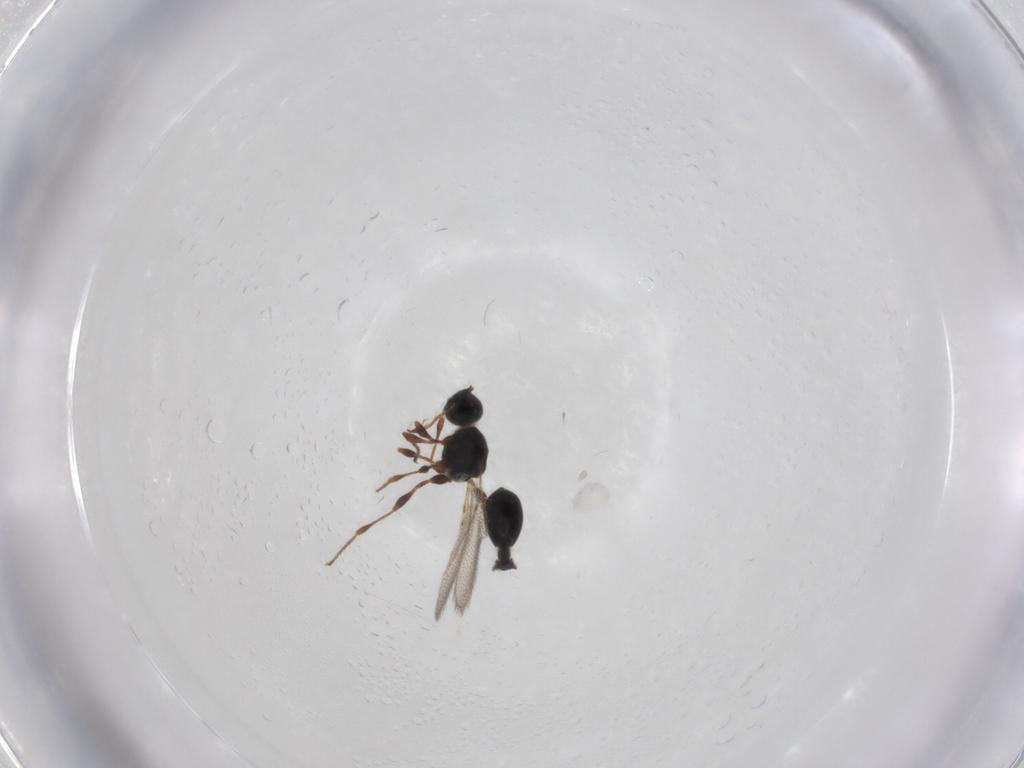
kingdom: Animalia
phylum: Arthropoda
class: Insecta
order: Hymenoptera
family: Diapriidae
